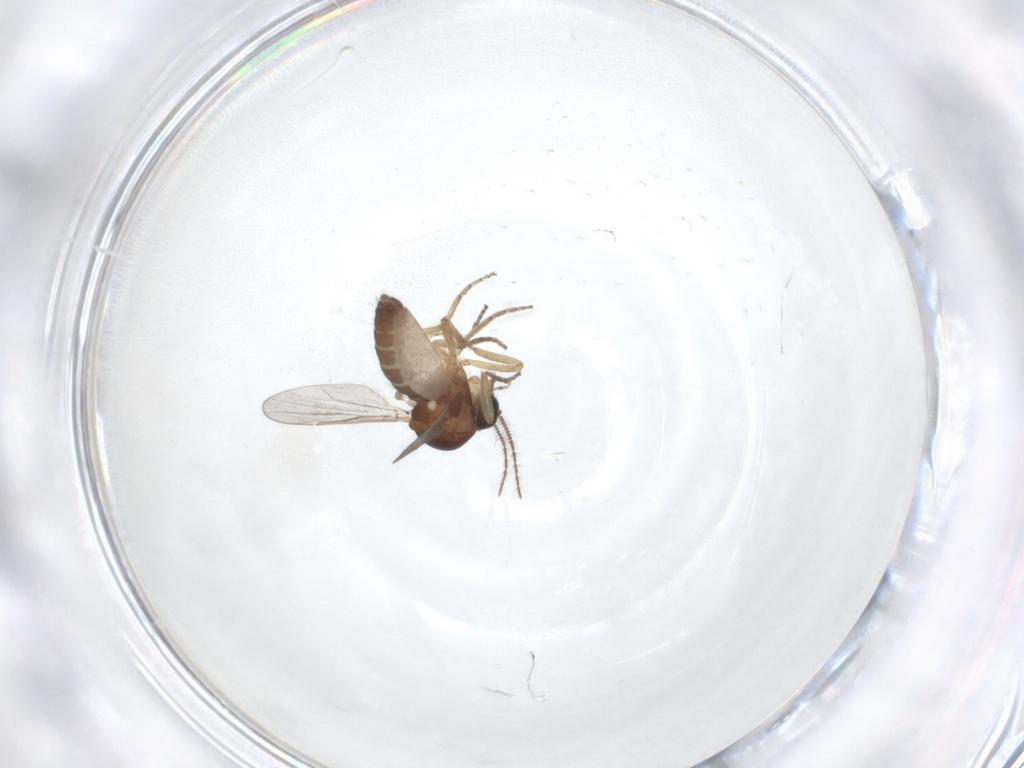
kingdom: Animalia
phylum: Arthropoda
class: Insecta
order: Diptera
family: Ceratopogonidae
